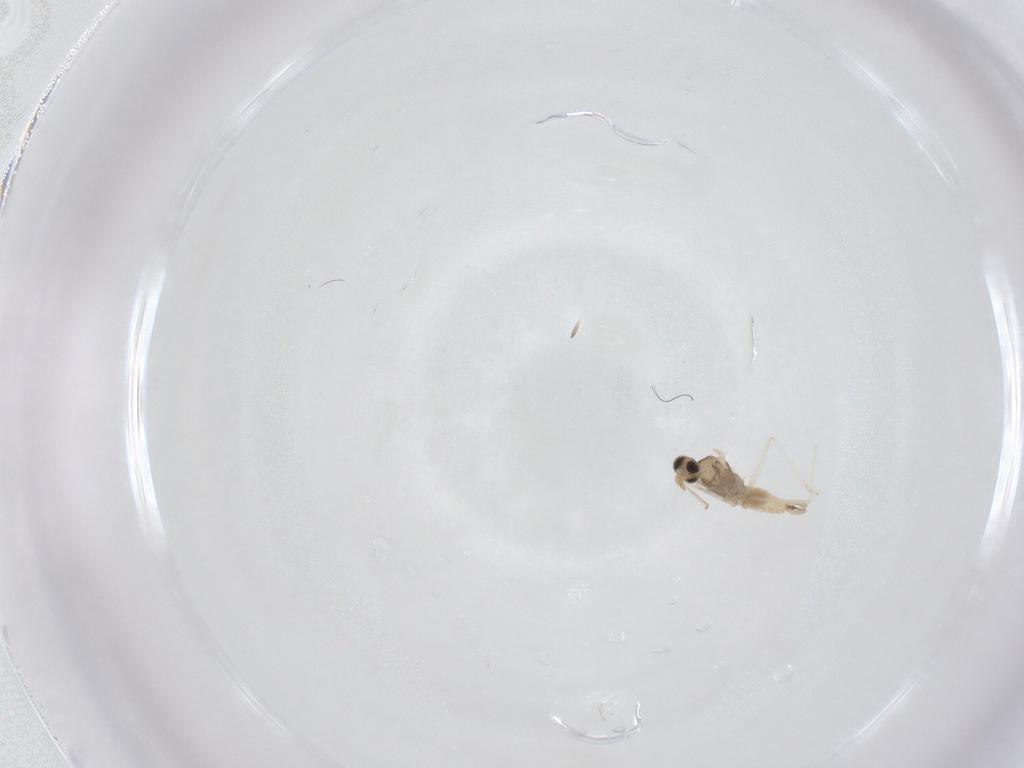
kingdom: Animalia
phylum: Arthropoda
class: Insecta
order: Diptera
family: Cecidomyiidae
